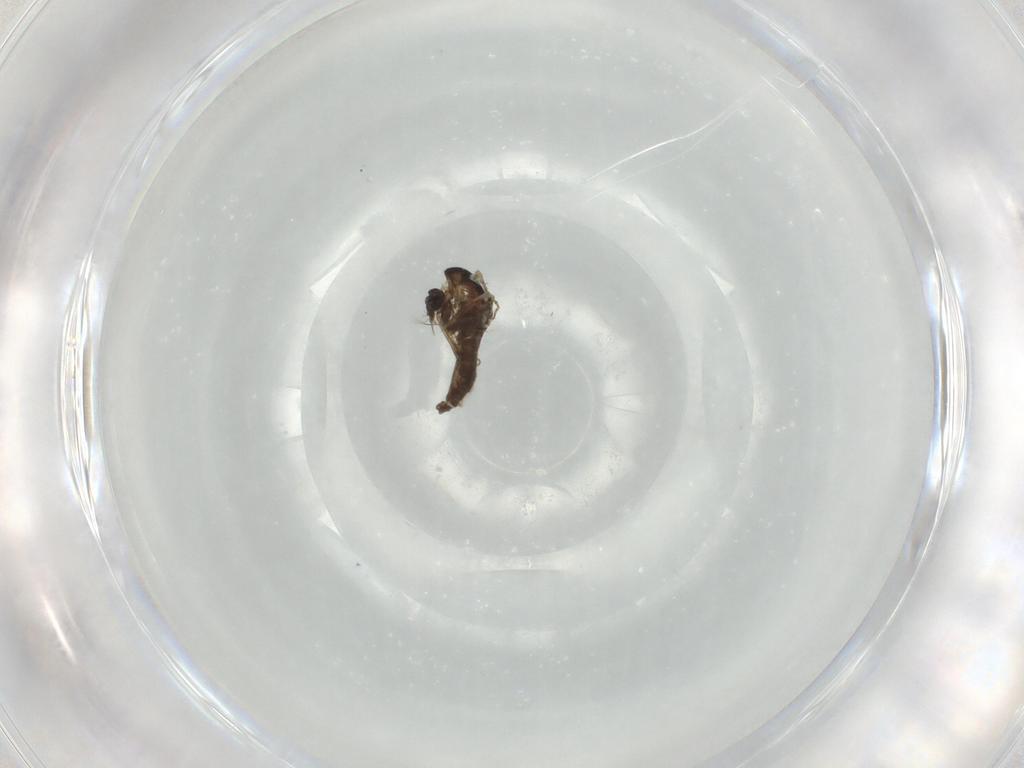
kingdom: Animalia
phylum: Arthropoda
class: Insecta
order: Diptera
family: Chironomidae
